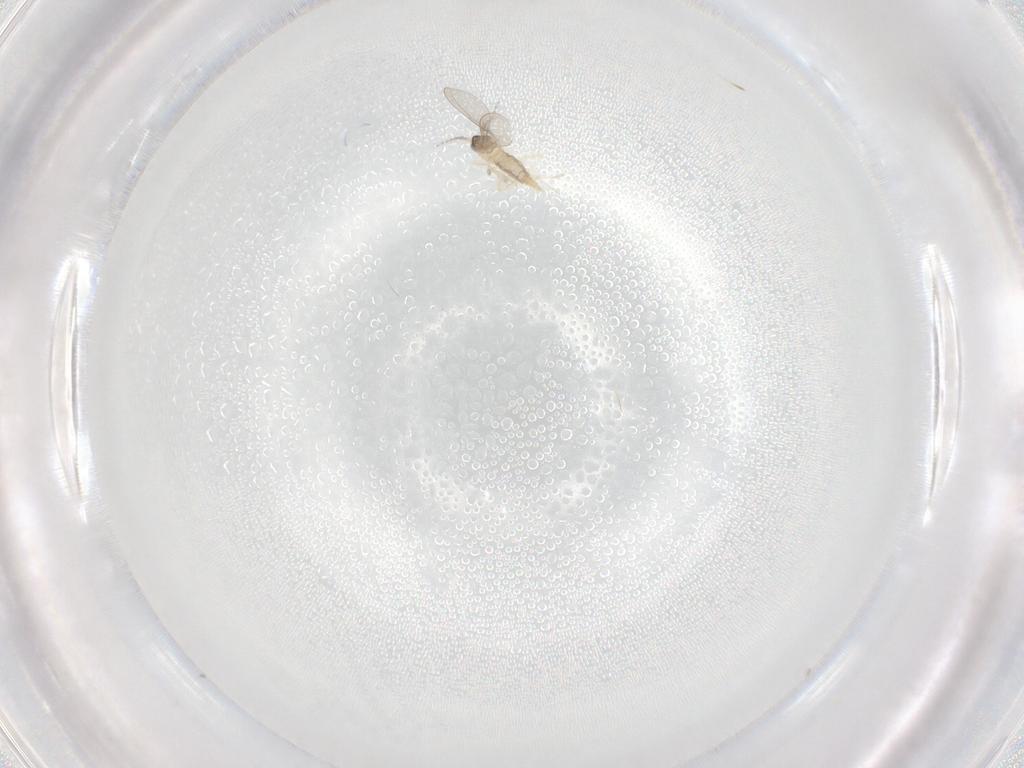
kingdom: Animalia
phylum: Arthropoda
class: Insecta
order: Diptera
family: Cecidomyiidae
